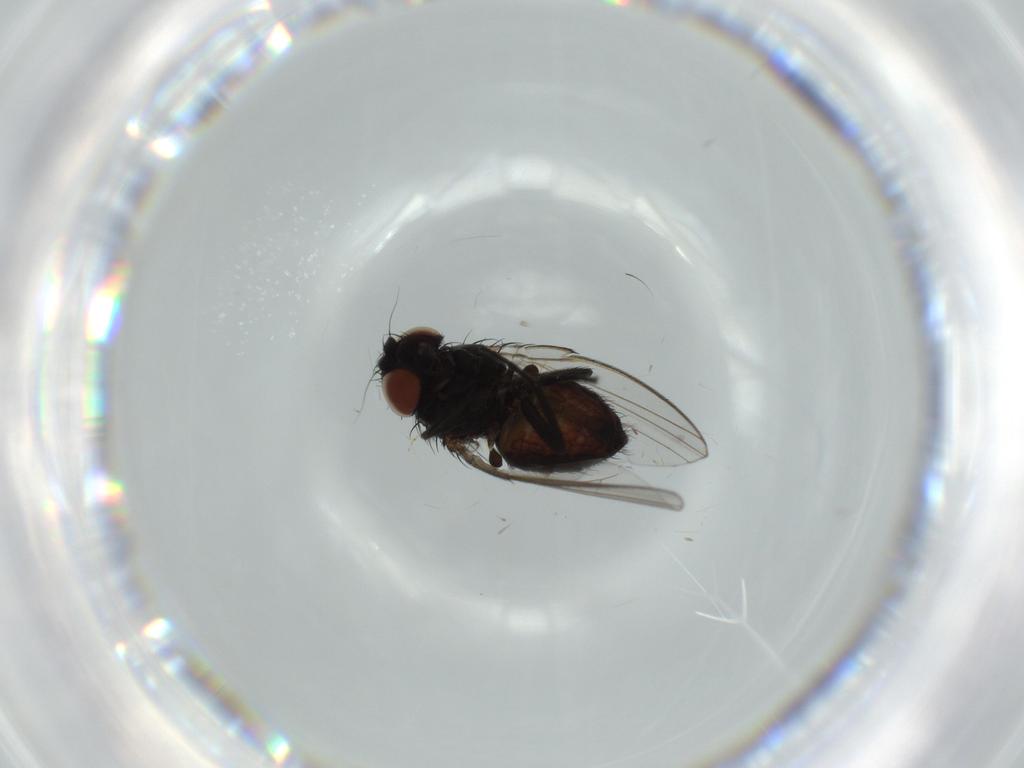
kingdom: Animalia
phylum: Arthropoda
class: Insecta
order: Diptera
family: Milichiidae
